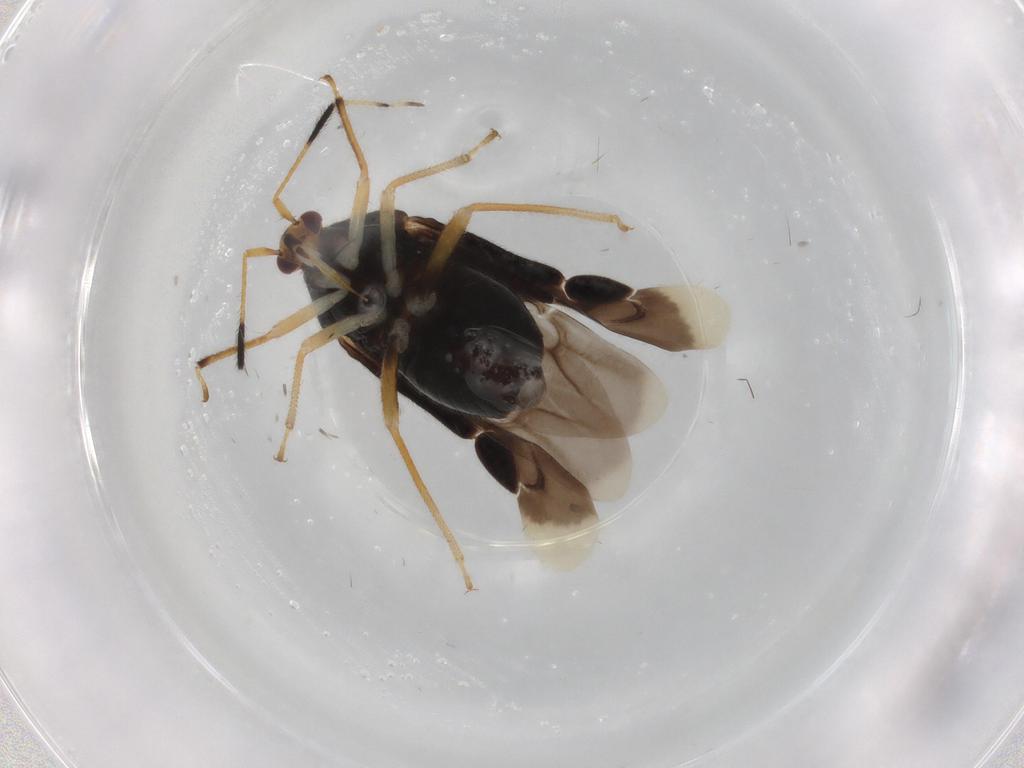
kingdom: Animalia
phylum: Arthropoda
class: Insecta
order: Hemiptera
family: Miridae
